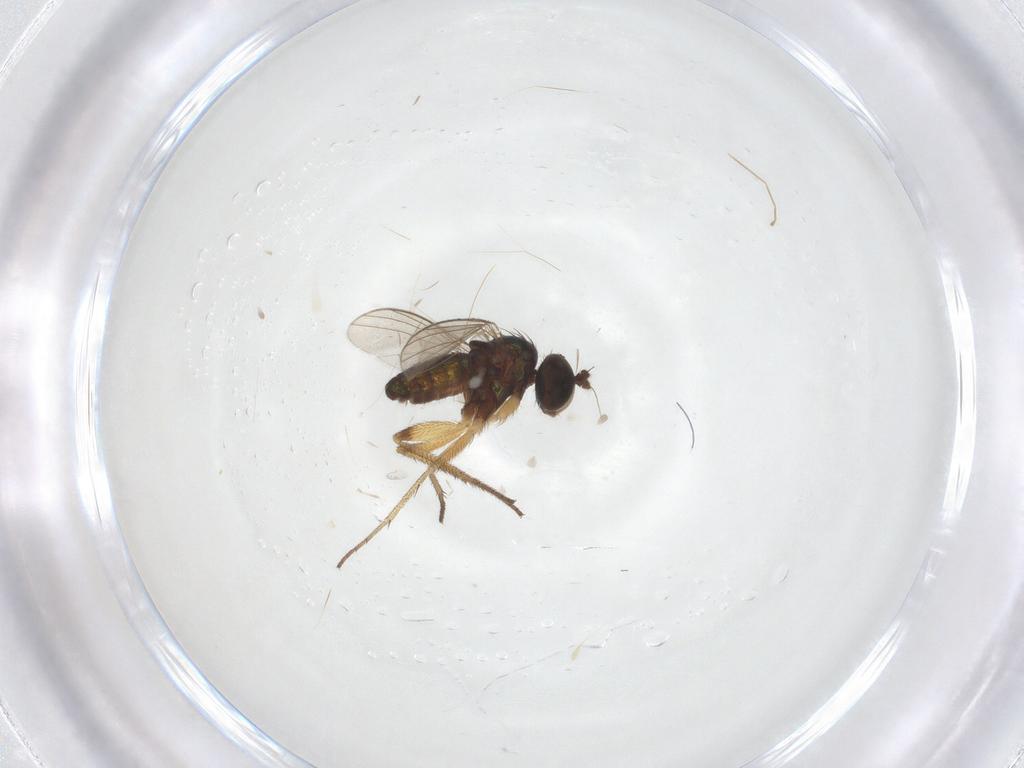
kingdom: Animalia
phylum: Arthropoda
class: Insecta
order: Diptera
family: Cecidomyiidae
